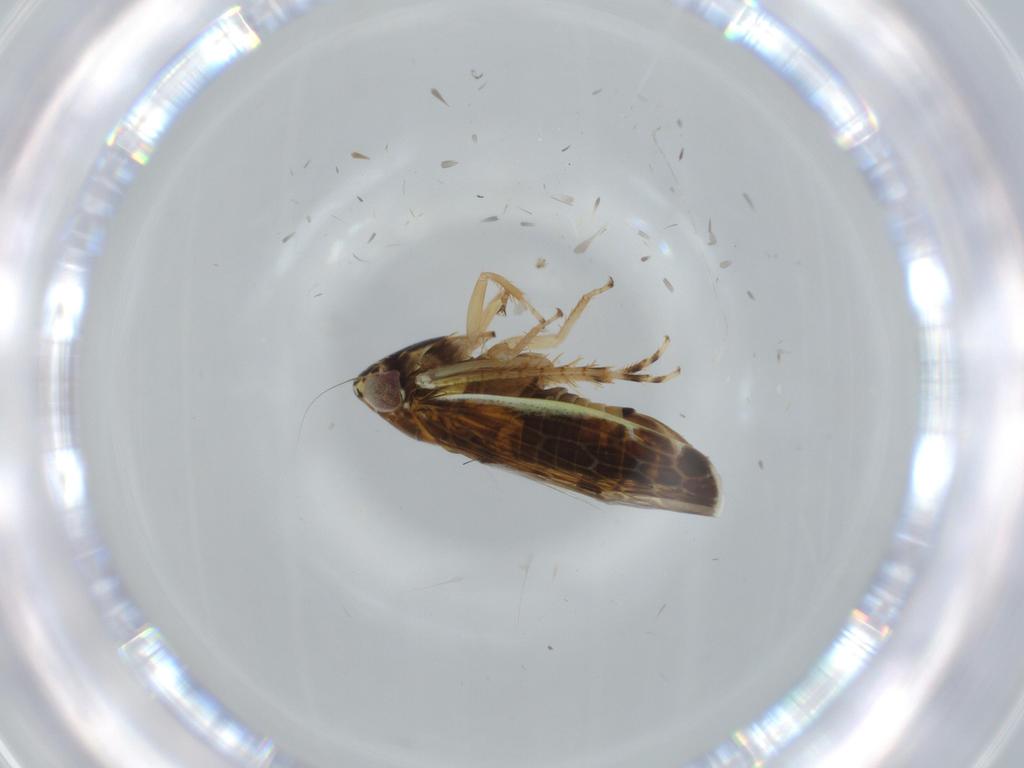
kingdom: Animalia
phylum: Arthropoda
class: Insecta
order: Hemiptera
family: Cicadellidae
